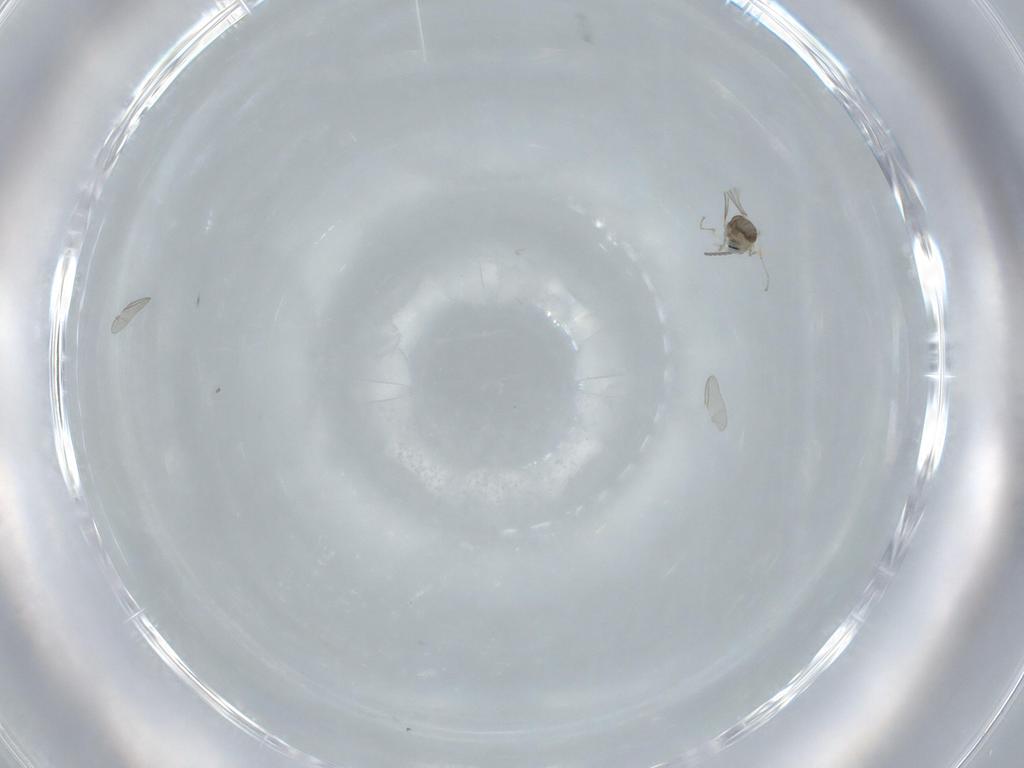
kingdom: Animalia
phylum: Arthropoda
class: Insecta
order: Diptera
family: Cecidomyiidae
